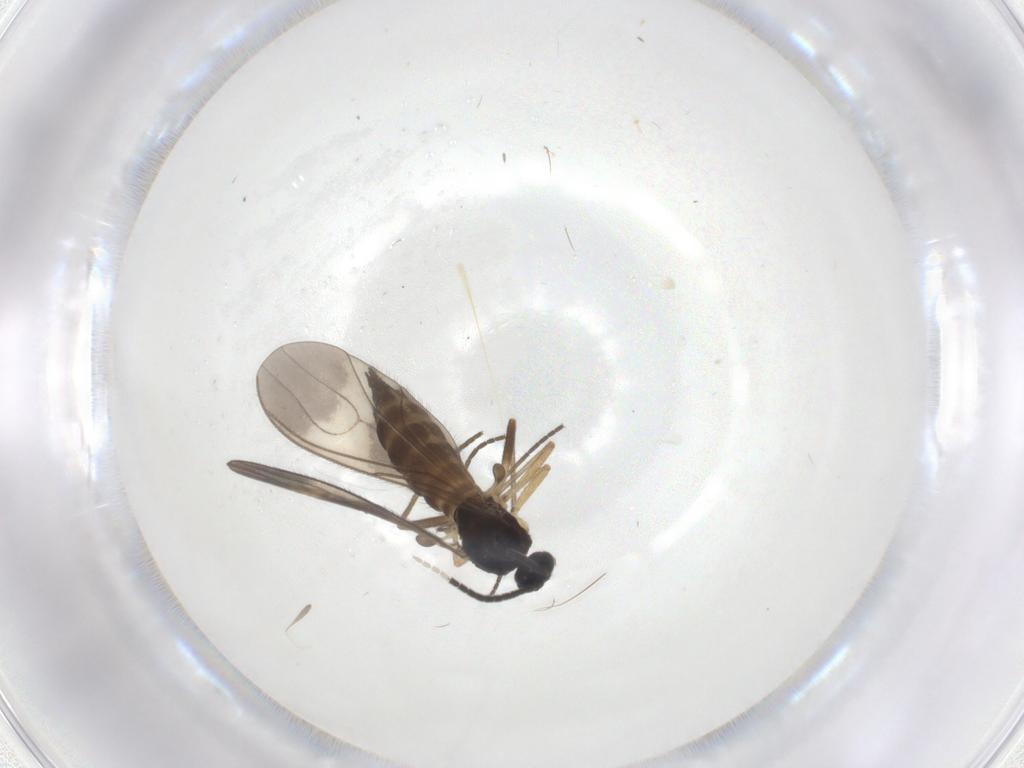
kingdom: Animalia
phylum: Arthropoda
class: Insecta
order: Diptera
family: Sciaridae
